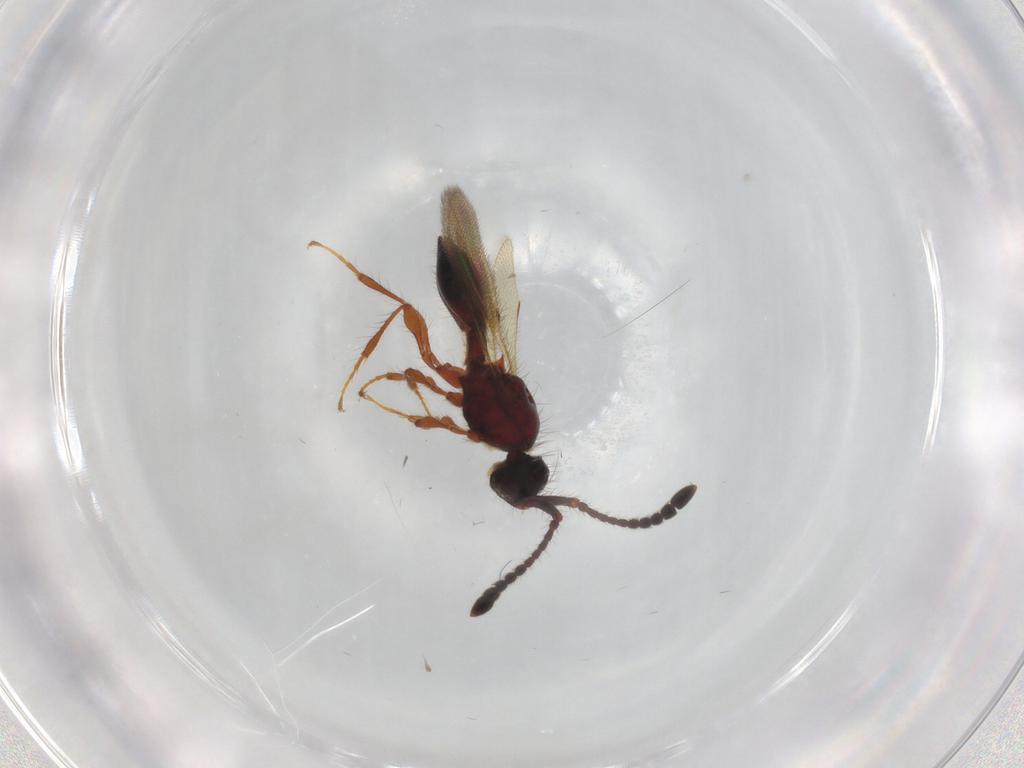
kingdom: Animalia
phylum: Arthropoda
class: Insecta
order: Hymenoptera
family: Diapriidae
